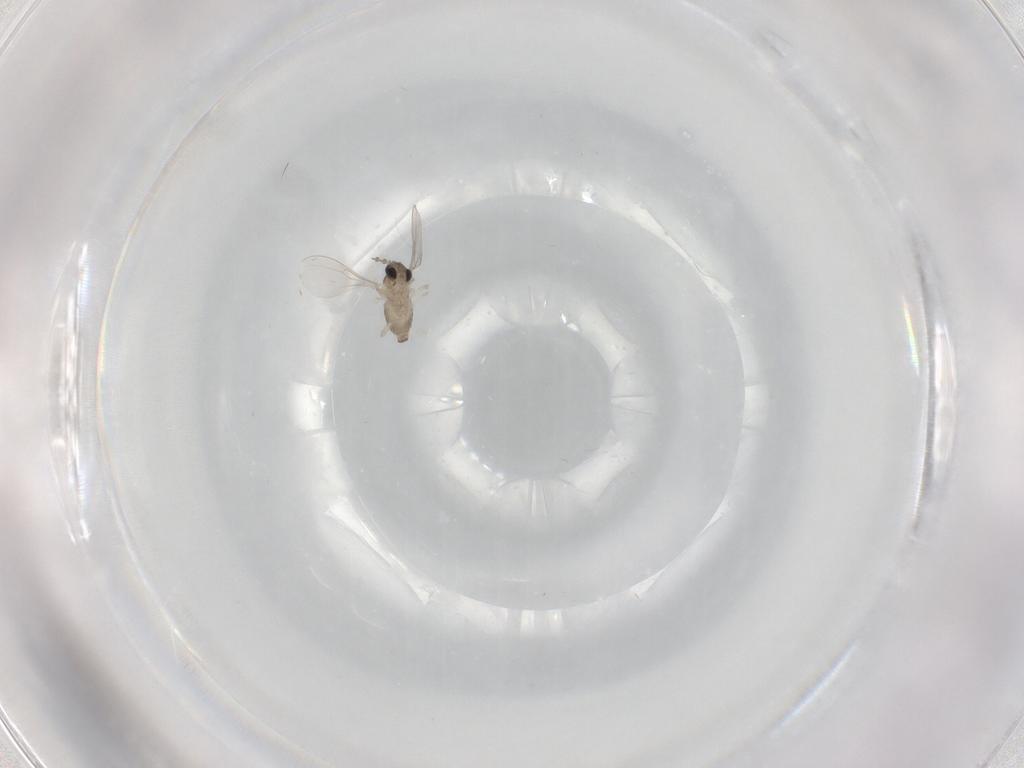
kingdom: Animalia
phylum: Arthropoda
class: Insecta
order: Diptera
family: Cecidomyiidae
